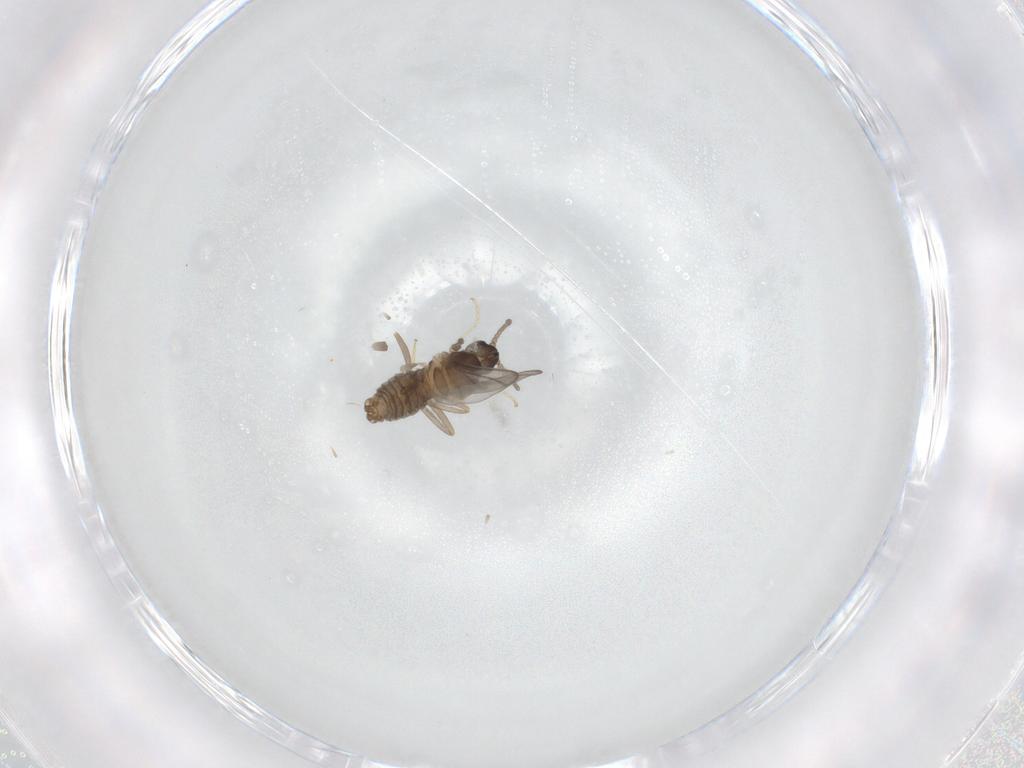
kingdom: Animalia
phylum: Arthropoda
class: Insecta
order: Diptera
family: Cecidomyiidae
